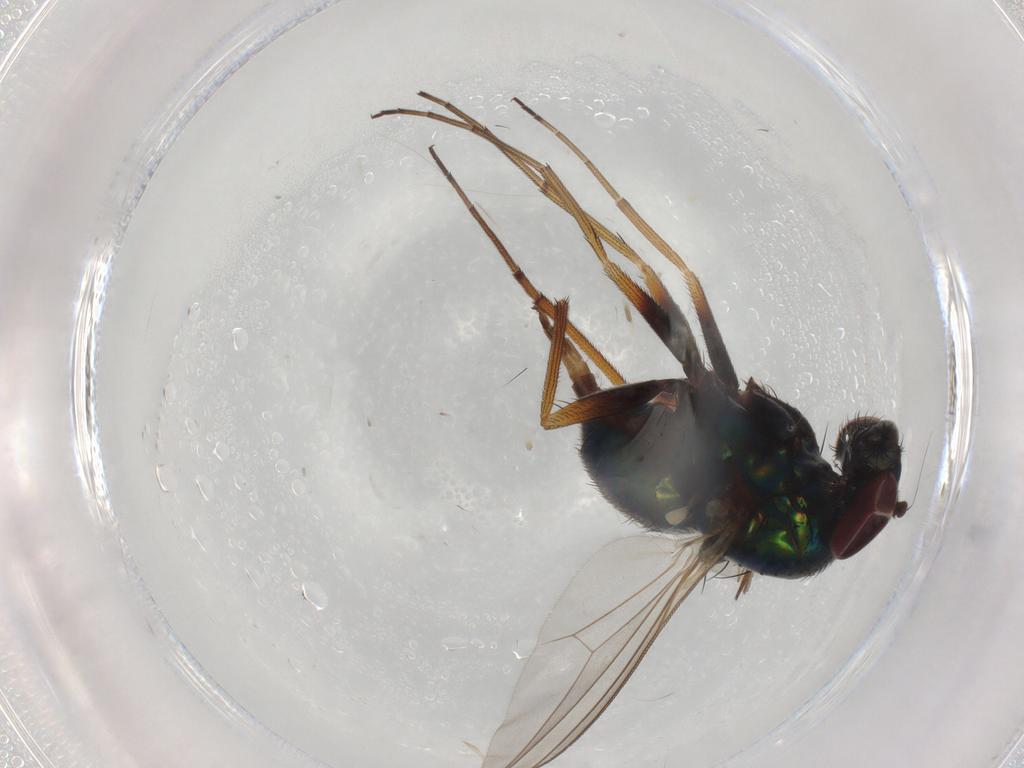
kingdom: Animalia
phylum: Arthropoda
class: Insecta
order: Diptera
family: Dolichopodidae
